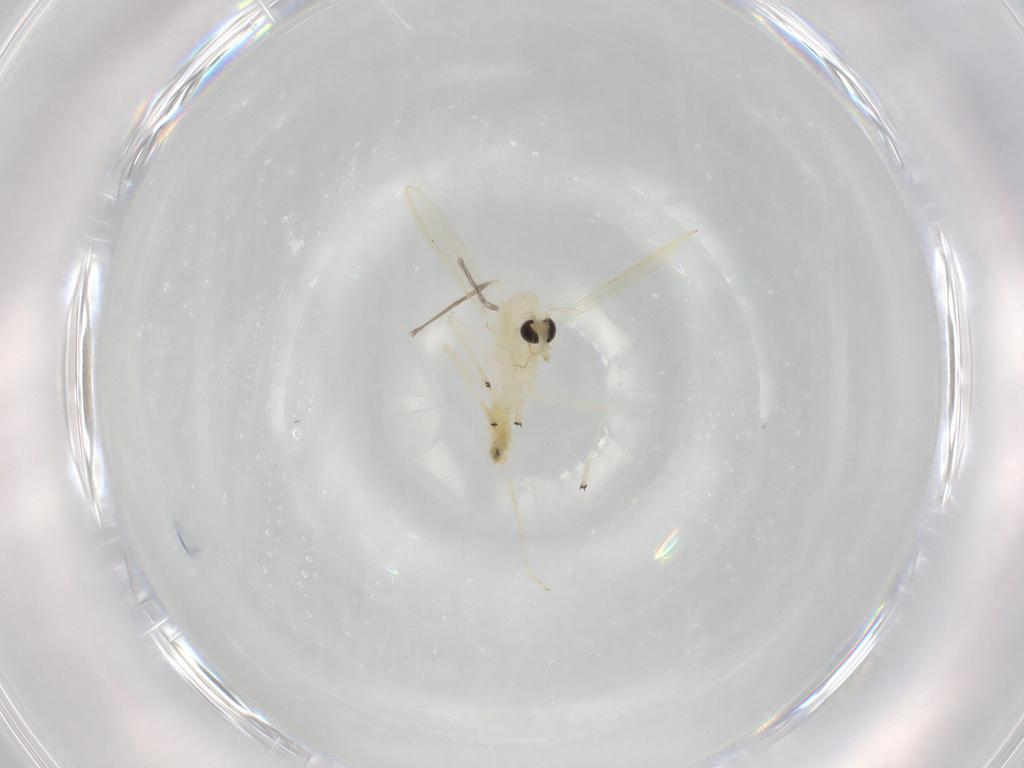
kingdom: Animalia
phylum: Arthropoda
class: Insecta
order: Diptera
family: Chironomidae
